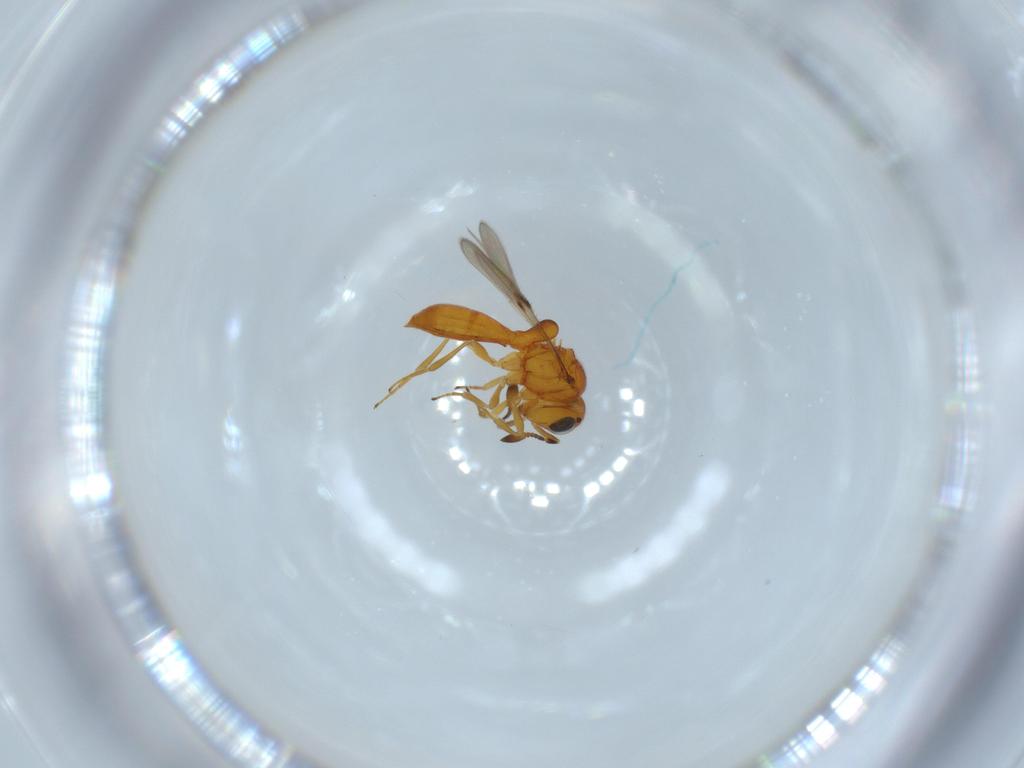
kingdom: Animalia
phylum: Arthropoda
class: Insecta
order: Hymenoptera
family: Scelionidae
